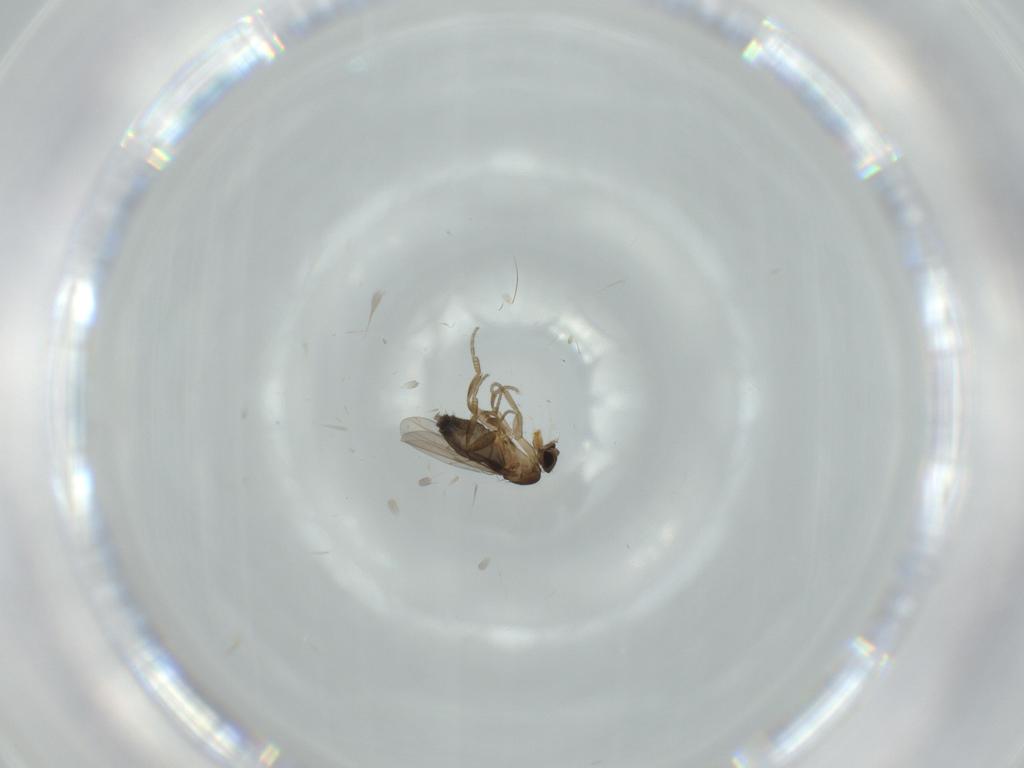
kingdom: Animalia
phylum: Arthropoda
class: Insecta
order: Diptera
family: Phoridae
